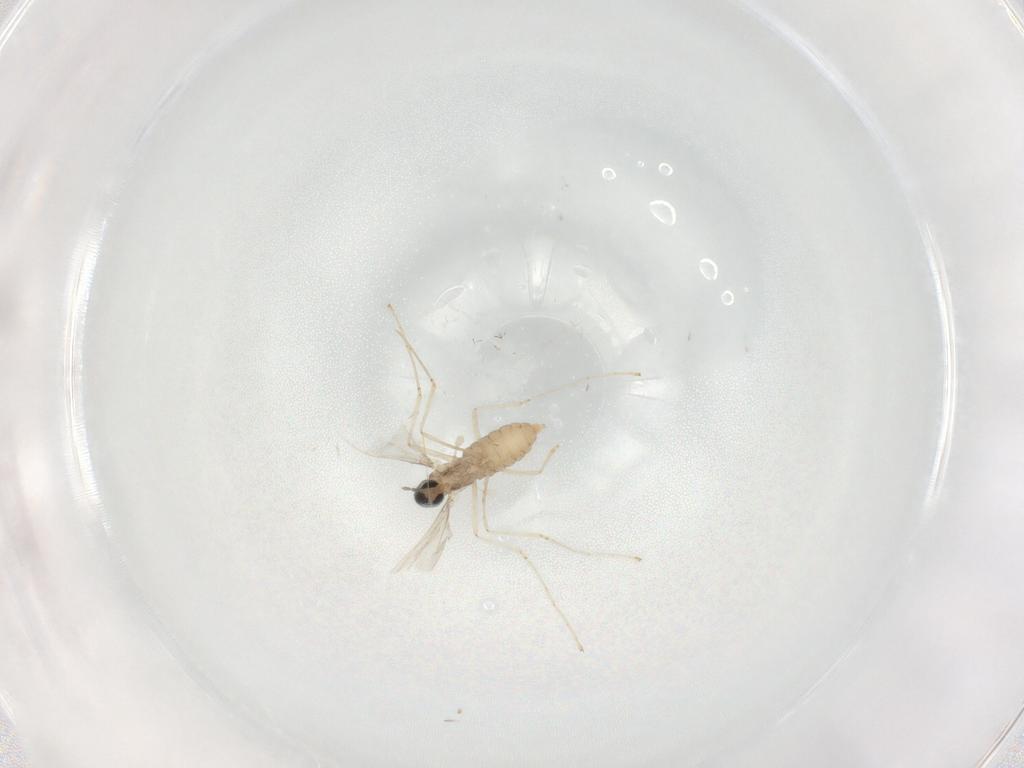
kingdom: Animalia
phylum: Arthropoda
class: Insecta
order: Diptera
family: Cecidomyiidae
